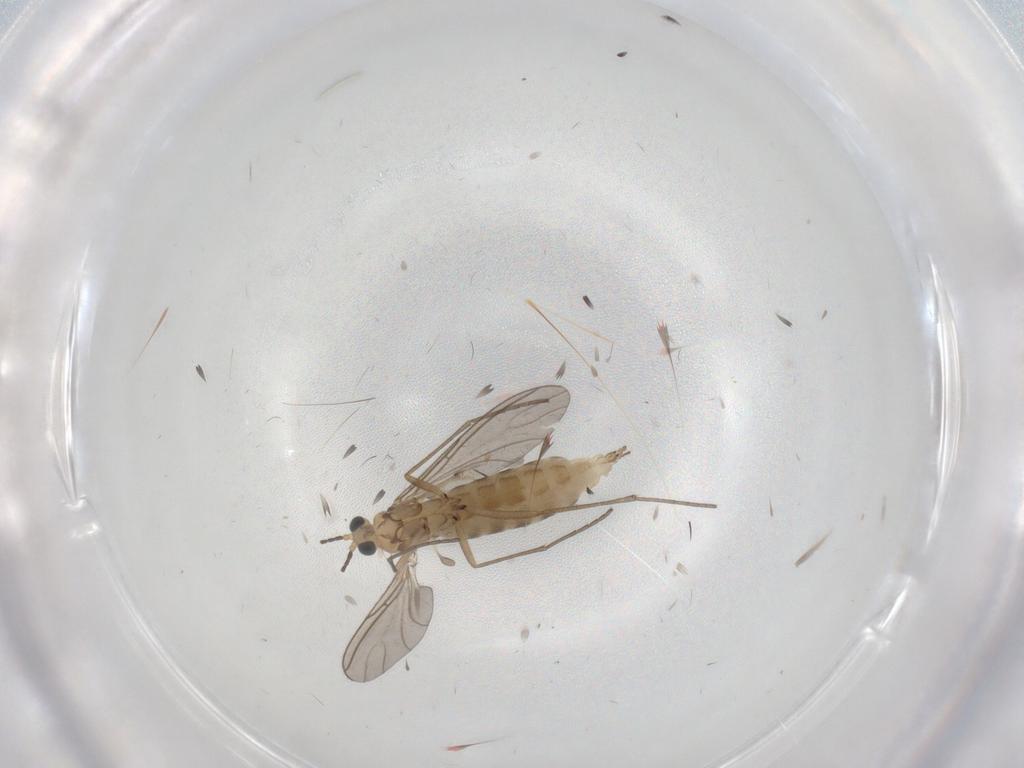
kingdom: Animalia
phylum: Arthropoda
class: Insecta
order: Diptera
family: Sciaridae
